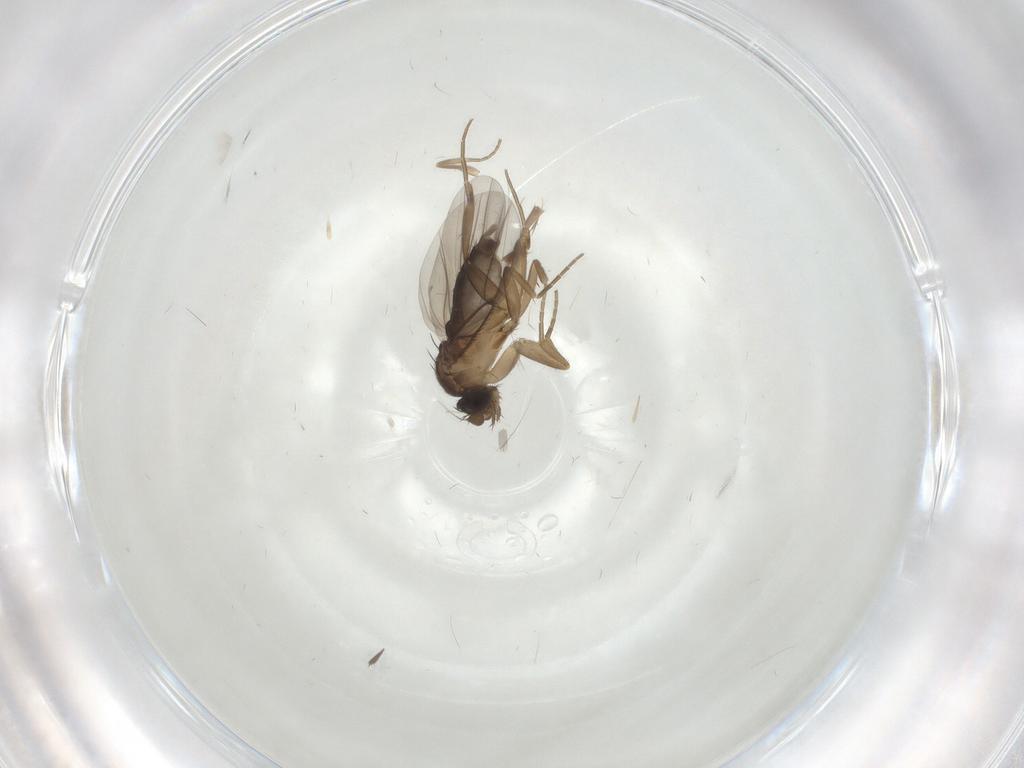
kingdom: Animalia
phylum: Arthropoda
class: Insecta
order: Diptera
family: Phoridae
